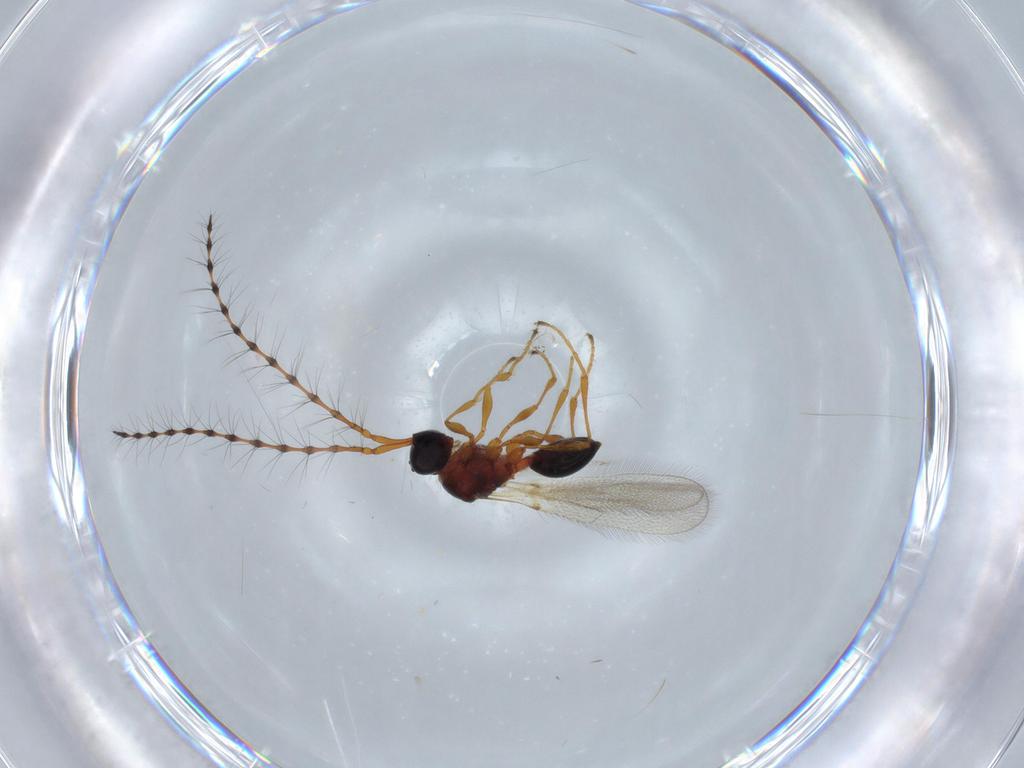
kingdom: Animalia
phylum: Arthropoda
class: Insecta
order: Hymenoptera
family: Diapriidae
